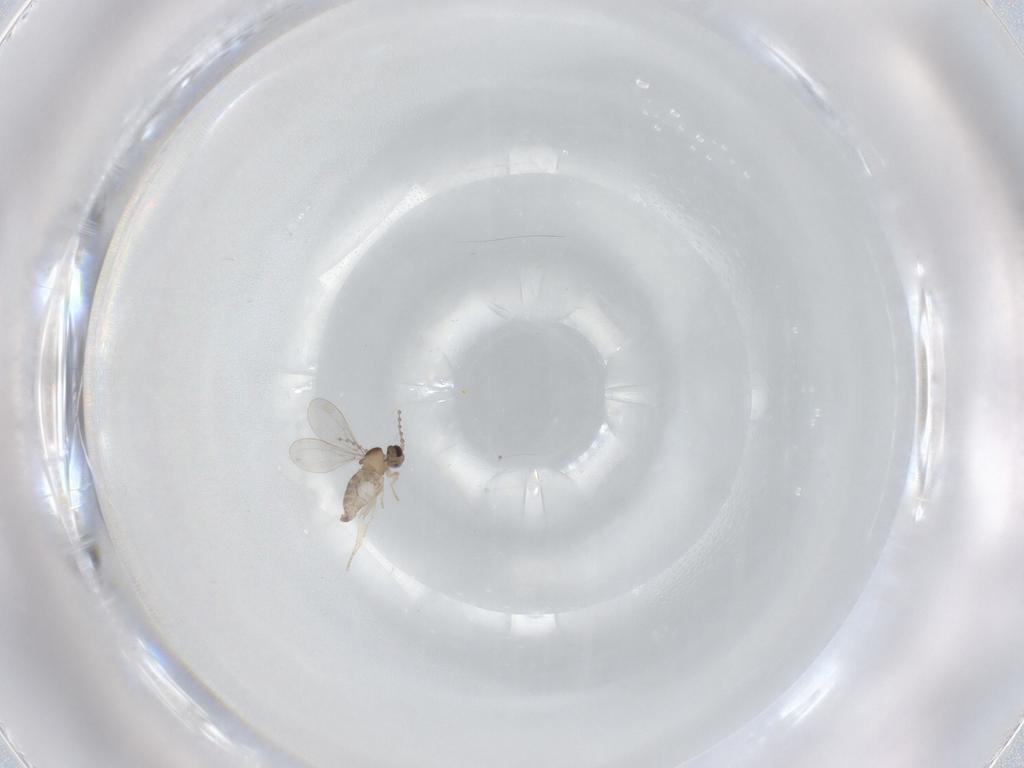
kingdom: Animalia
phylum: Arthropoda
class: Insecta
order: Diptera
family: Cecidomyiidae
